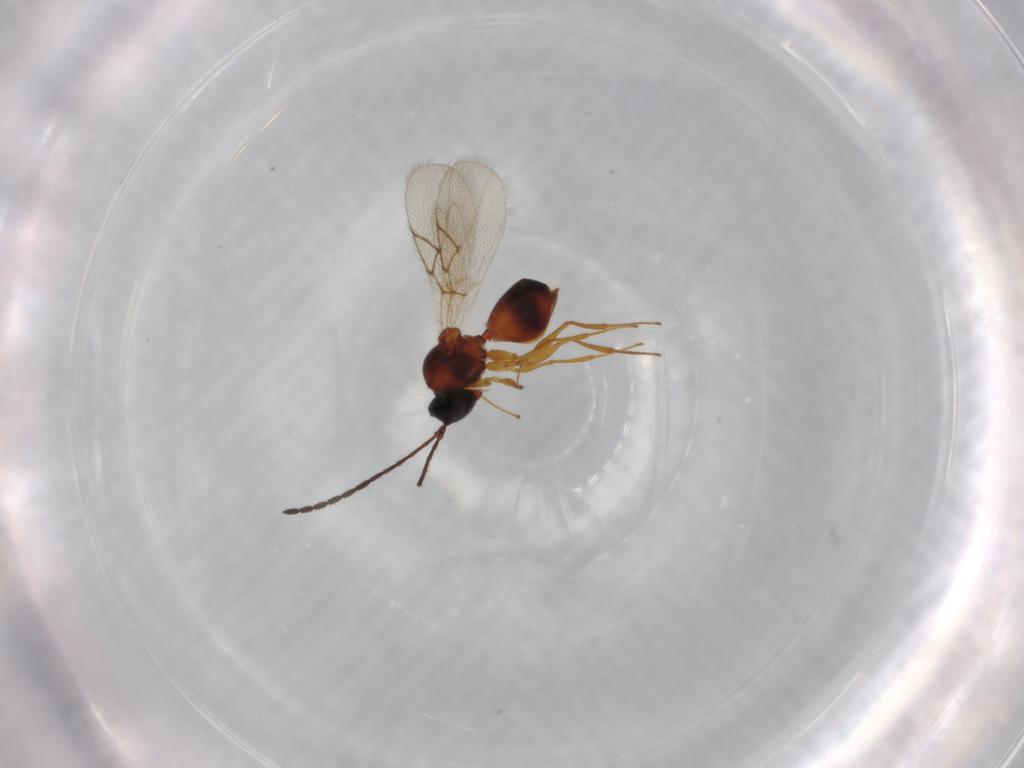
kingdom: Animalia
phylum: Arthropoda
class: Insecta
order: Hymenoptera
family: Figitidae
